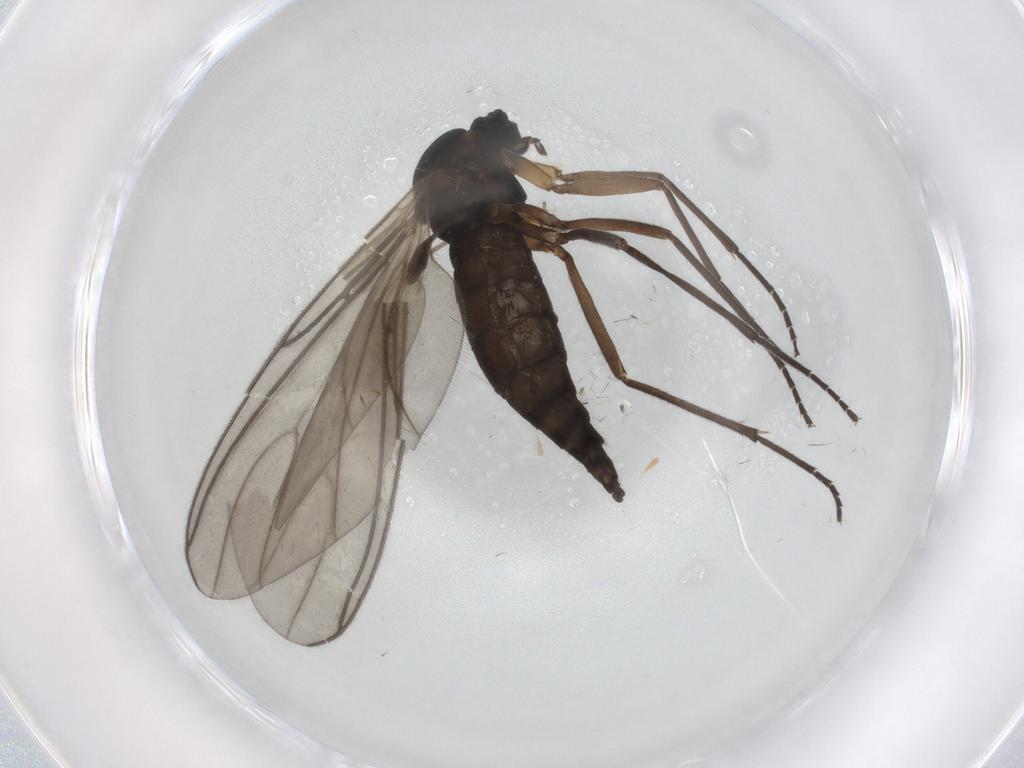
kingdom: Animalia
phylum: Arthropoda
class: Insecta
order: Diptera
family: Sciaridae
